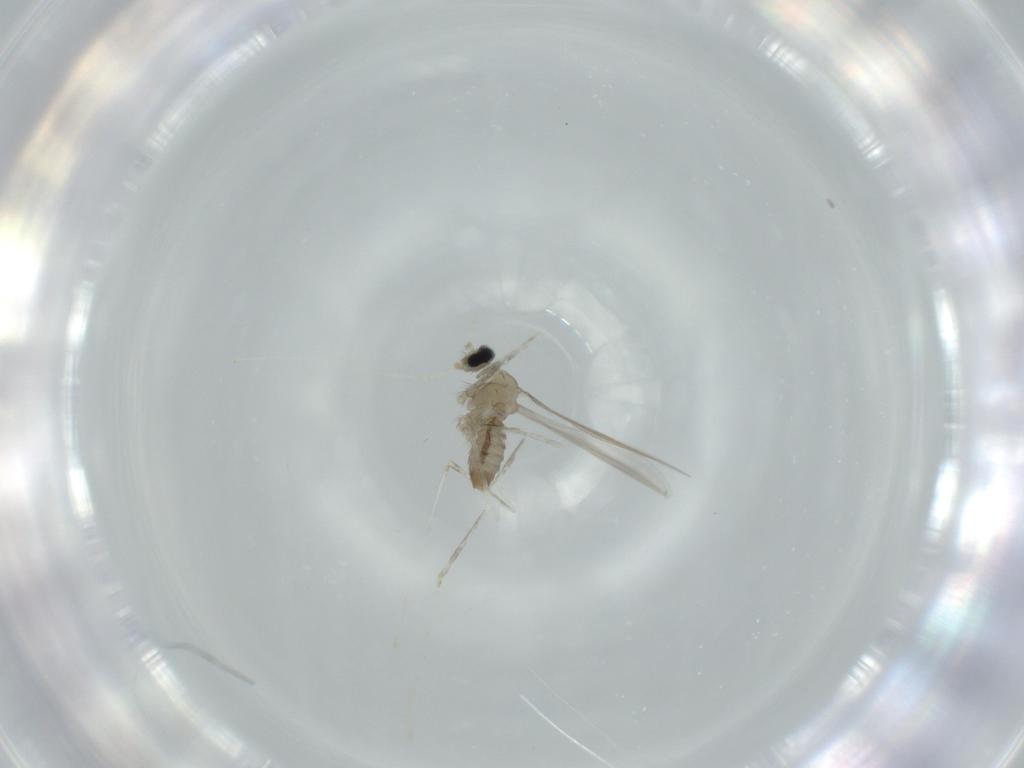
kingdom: Animalia
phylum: Arthropoda
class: Insecta
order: Diptera
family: Cecidomyiidae
